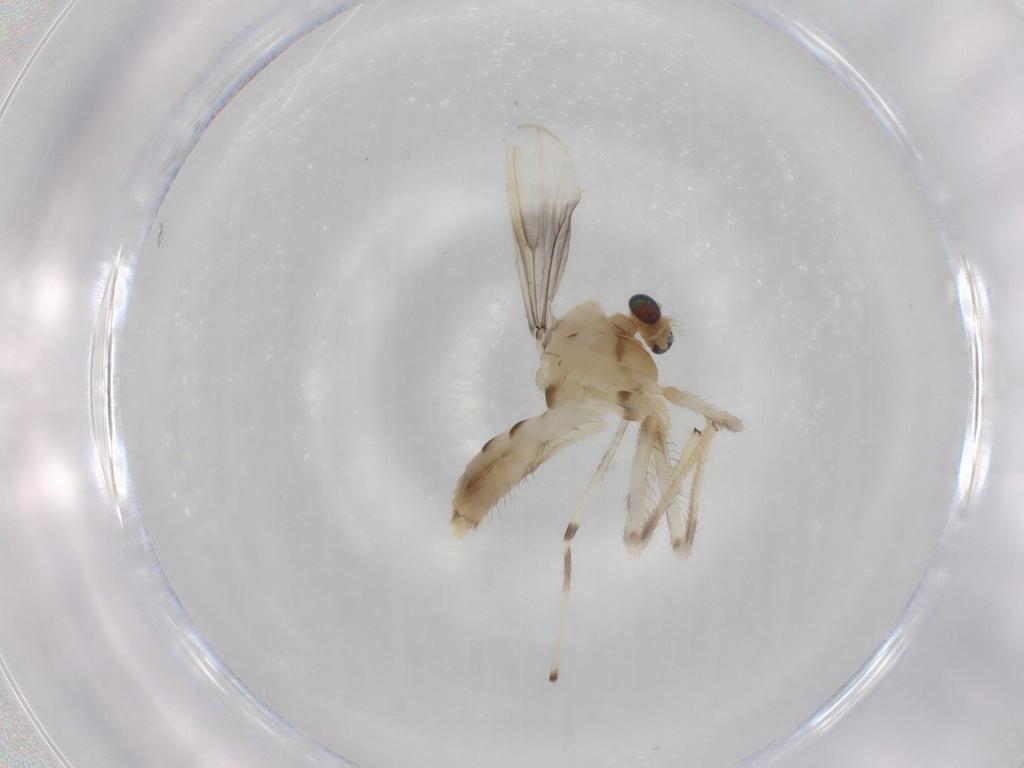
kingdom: Animalia
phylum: Arthropoda
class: Insecta
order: Diptera
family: Chironomidae
